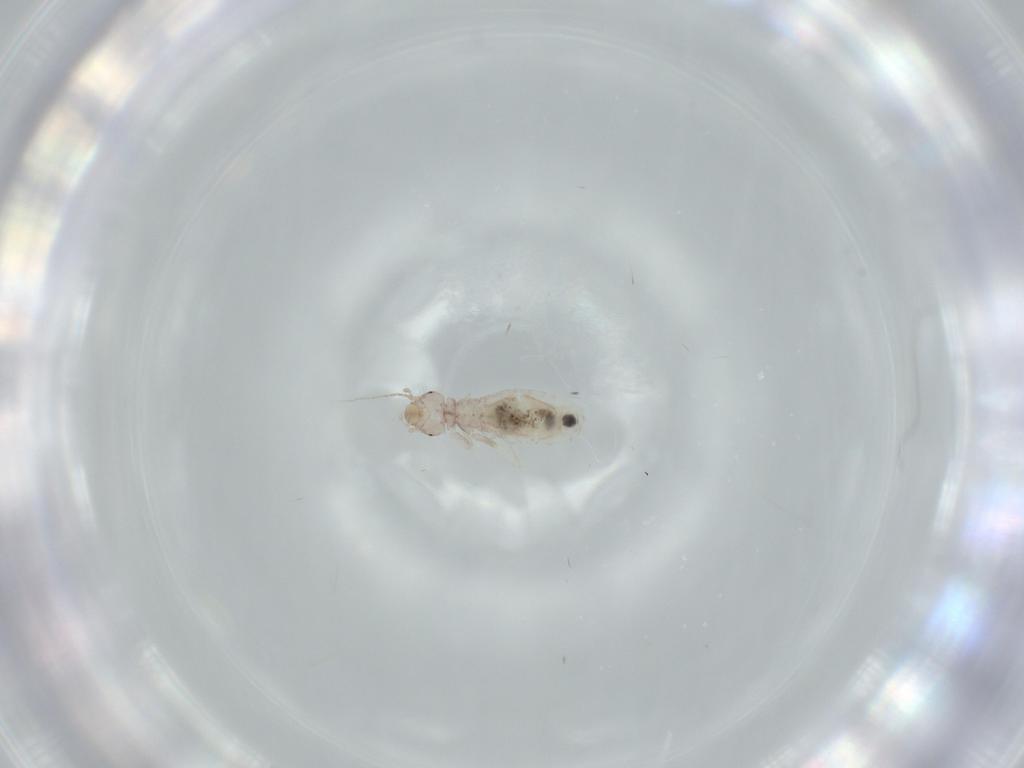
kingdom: Animalia
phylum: Arthropoda
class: Insecta
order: Psocodea
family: Liposcelididae
